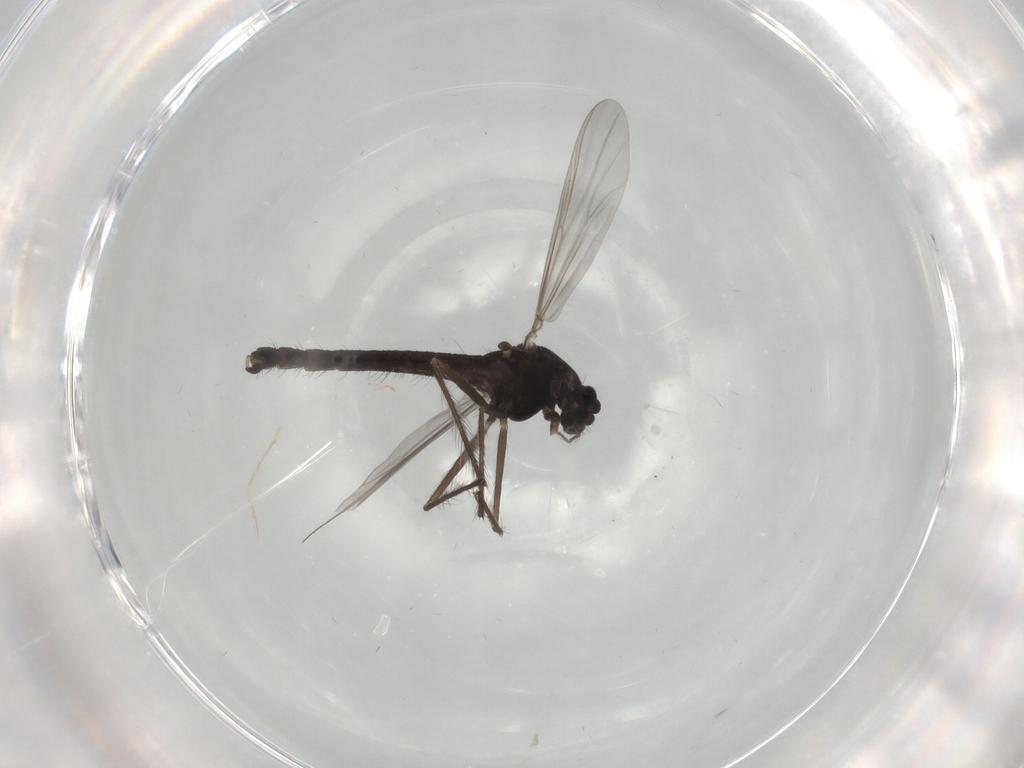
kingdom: Animalia
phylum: Arthropoda
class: Insecta
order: Diptera
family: Chironomidae
